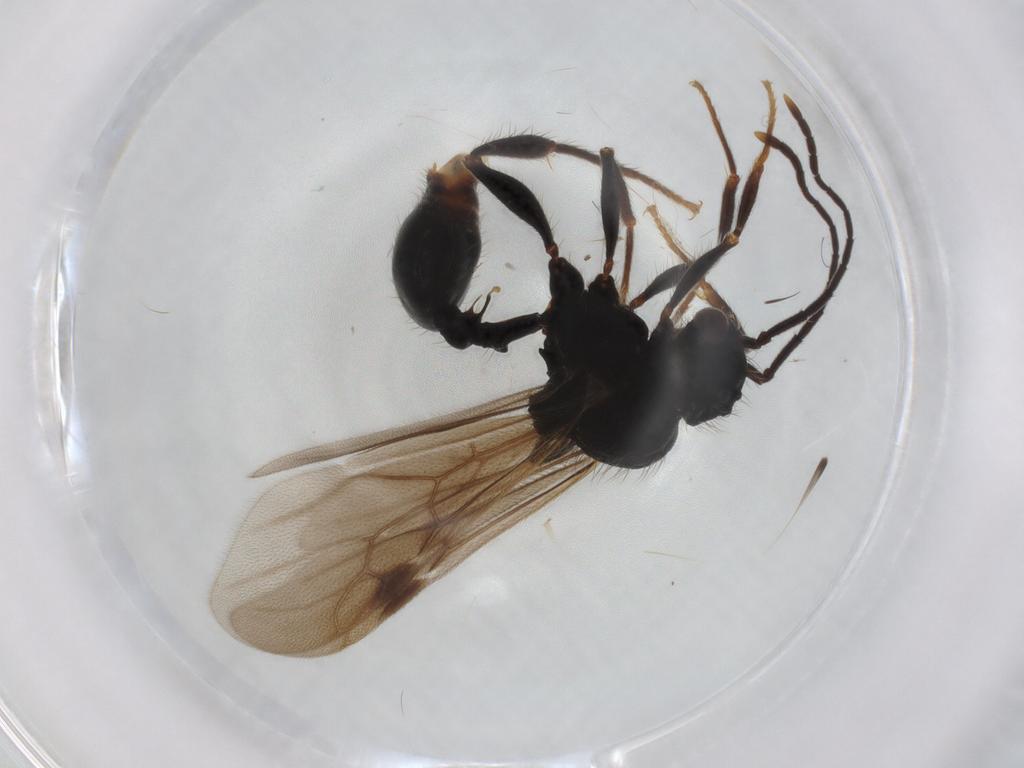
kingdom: Animalia
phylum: Arthropoda
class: Insecta
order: Hymenoptera
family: Formicidae
